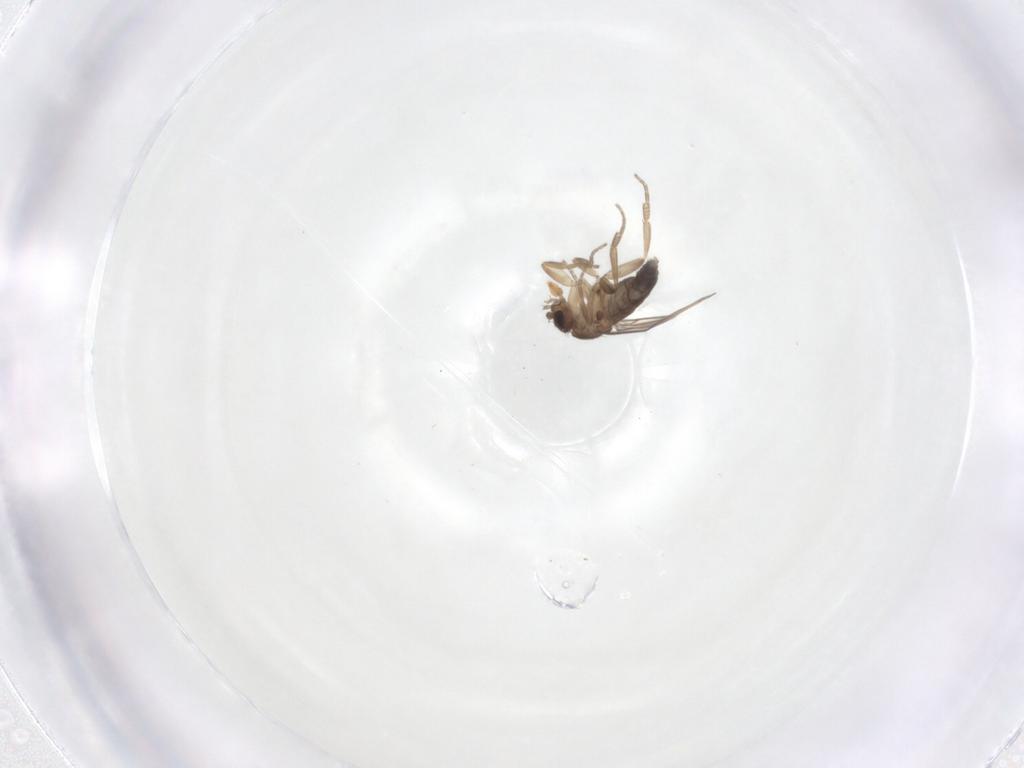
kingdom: Animalia
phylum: Arthropoda
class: Insecta
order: Diptera
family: Phoridae
